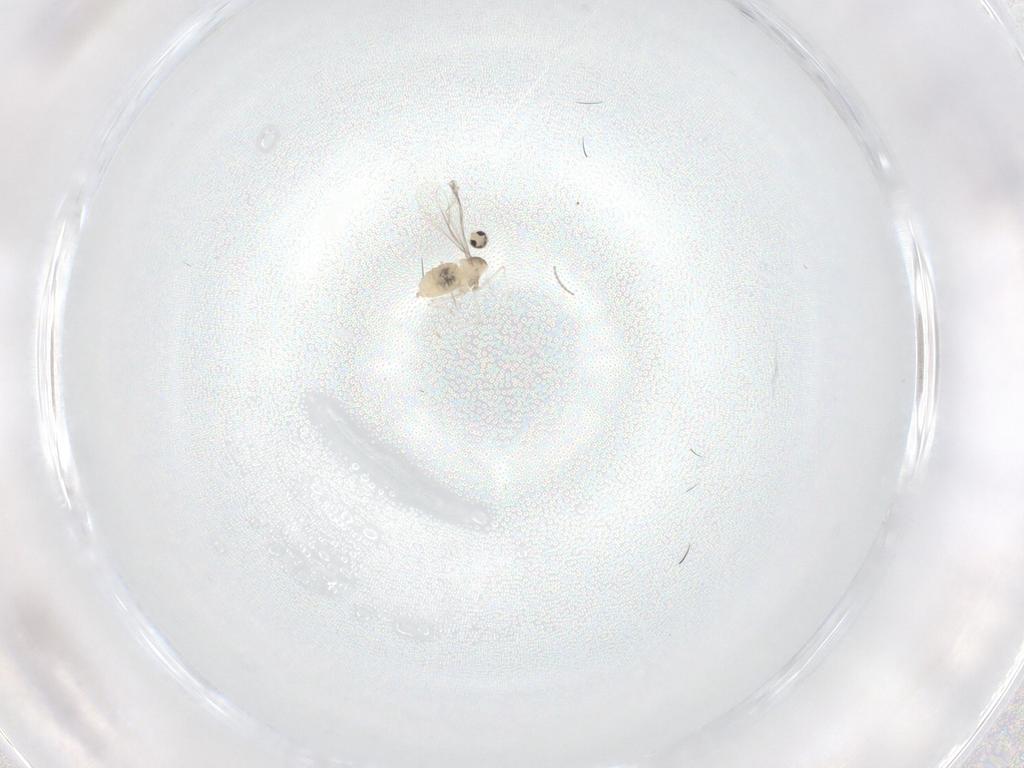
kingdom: Animalia
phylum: Arthropoda
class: Insecta
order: Diptera
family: Cecidomyiidae
